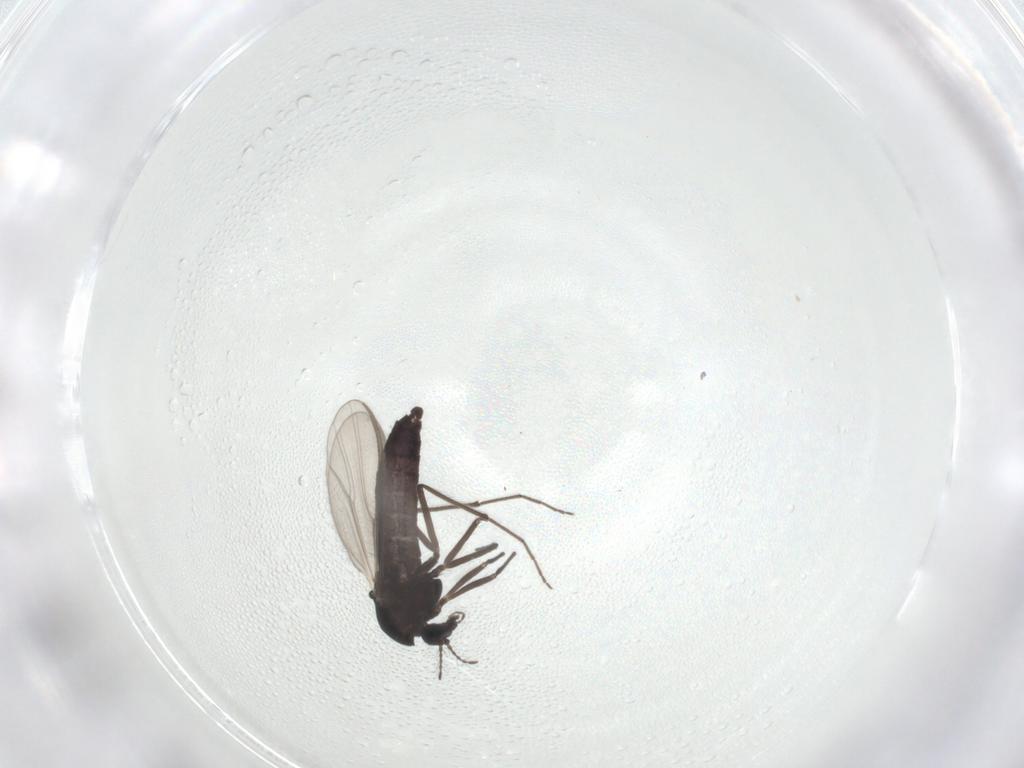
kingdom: Animalia
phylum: Arthropoda
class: Insecta
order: Diptera
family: Chironomidae
